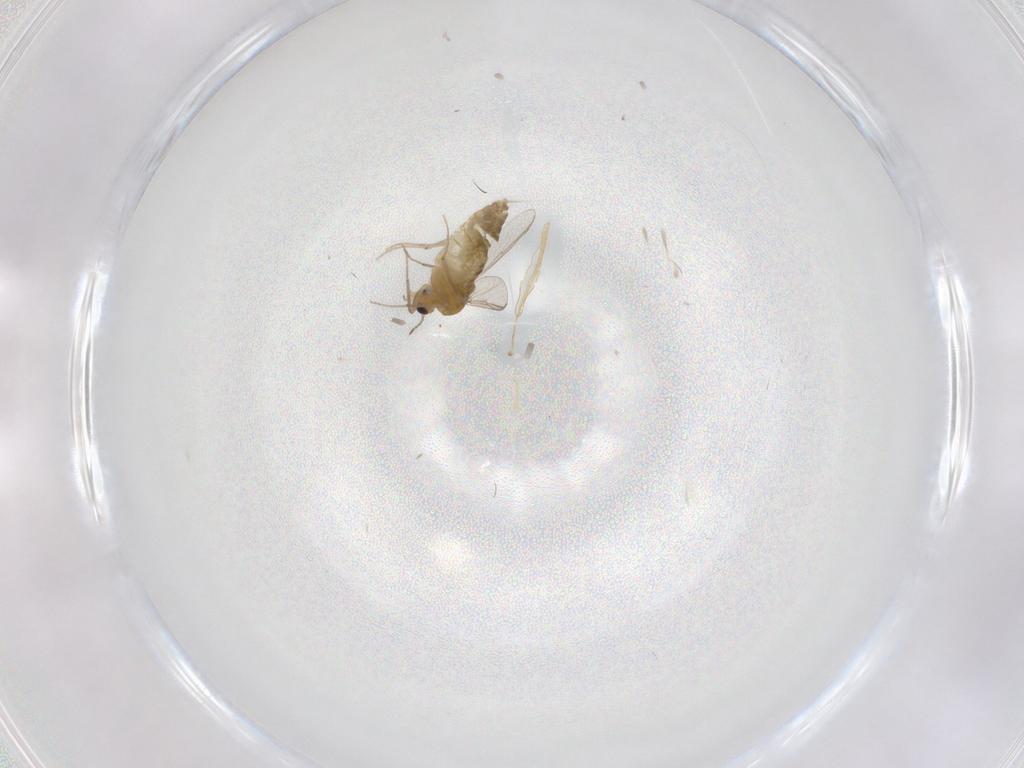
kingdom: Animalia
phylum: Arthropoda
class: Insecta
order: Diptera
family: Chironomidae
